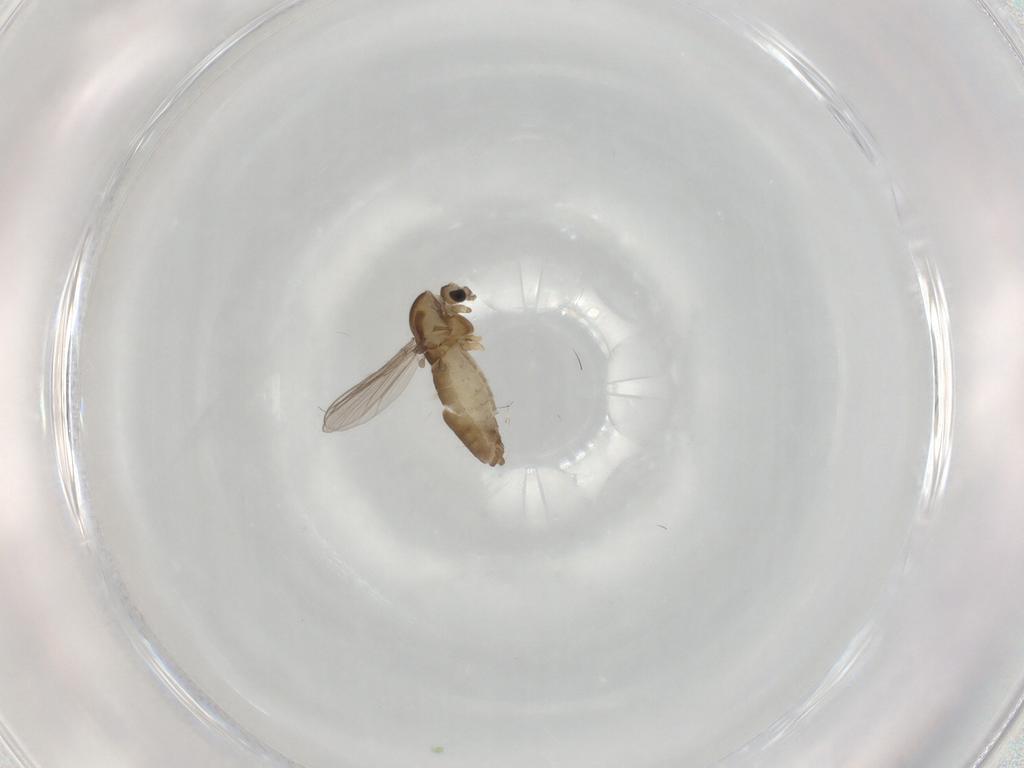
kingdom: Animalia
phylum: Arthropoda
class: Insecta
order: Diptera
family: Chironomidae
